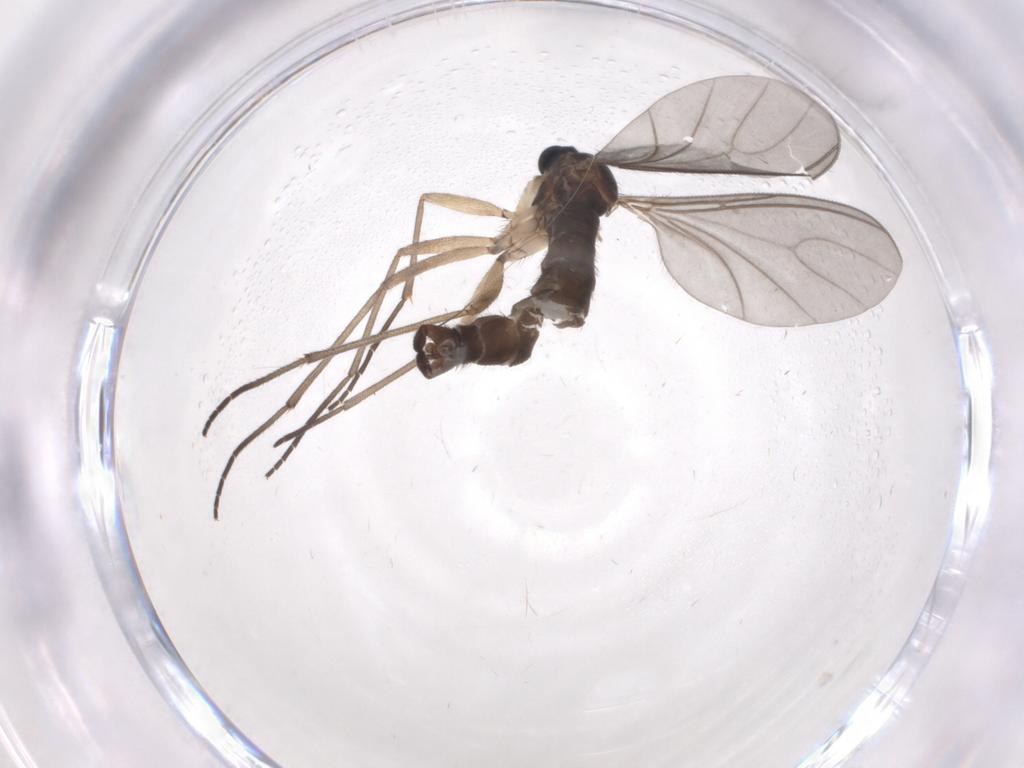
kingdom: Animalia
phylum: Arthropoda
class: Insecta
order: Diptera
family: Sciaridae
